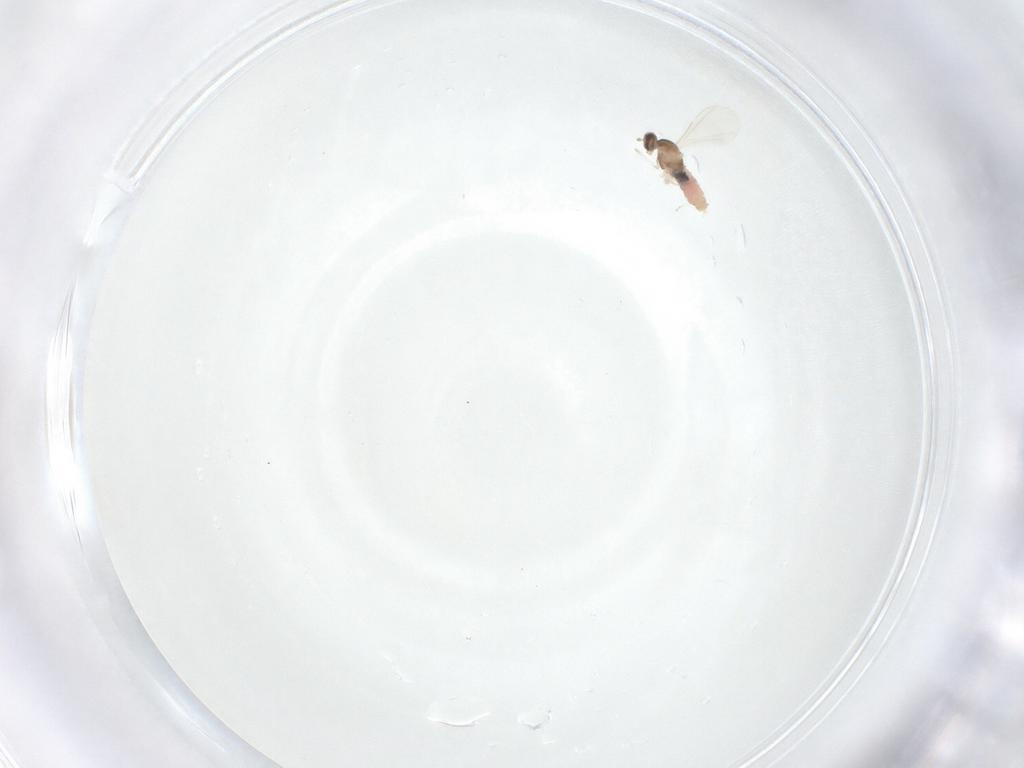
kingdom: Animalia
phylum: Arthropoda
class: Insecta
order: Diptera
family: Cecidomyiidae
